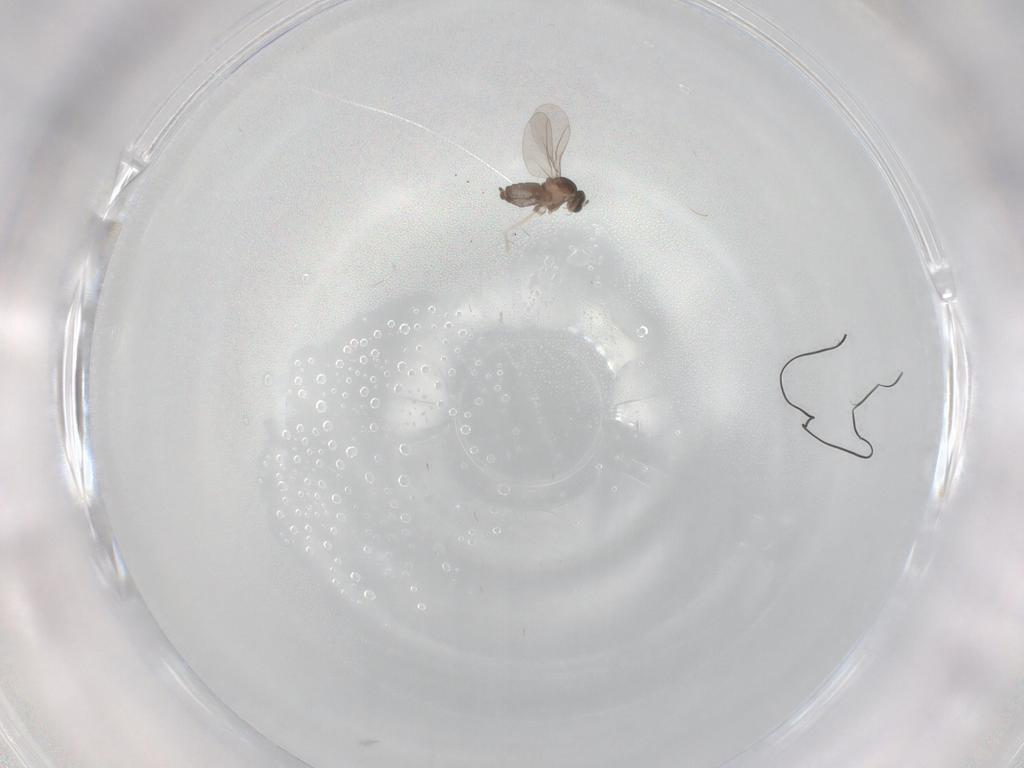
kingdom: Animalia
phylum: Arthropoda
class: Insecta
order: Diptera
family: Cecidomyiidae
